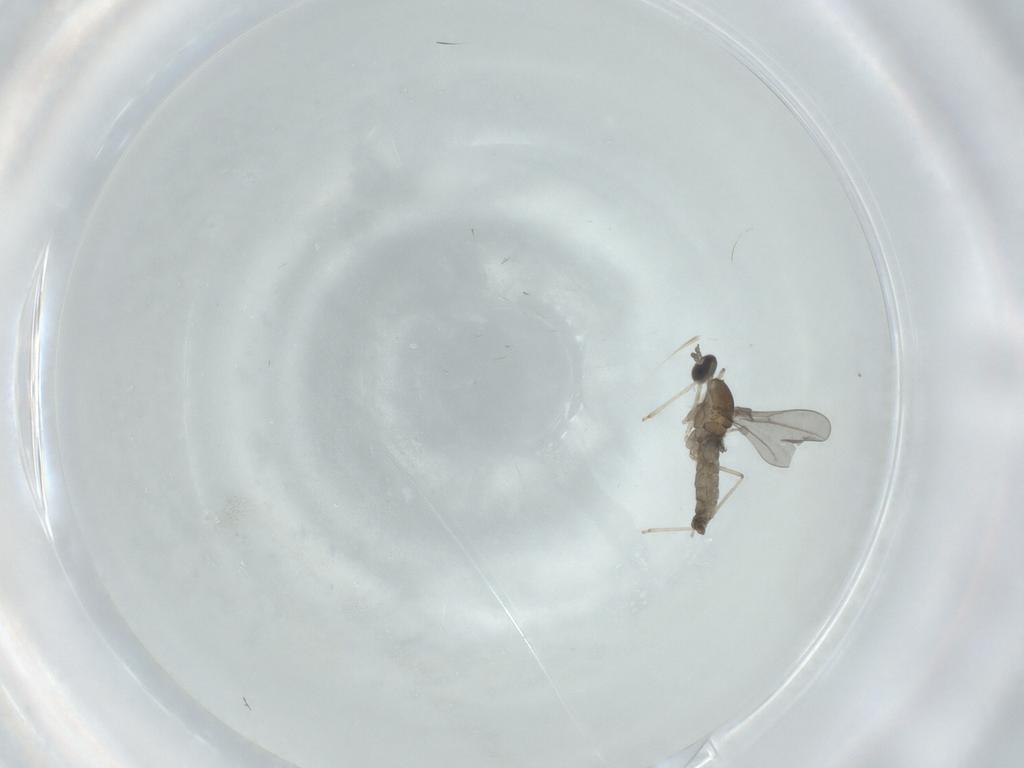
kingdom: Animalia
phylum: Arthropoda
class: Insecta
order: Diptera
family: Cecidomyiidae
